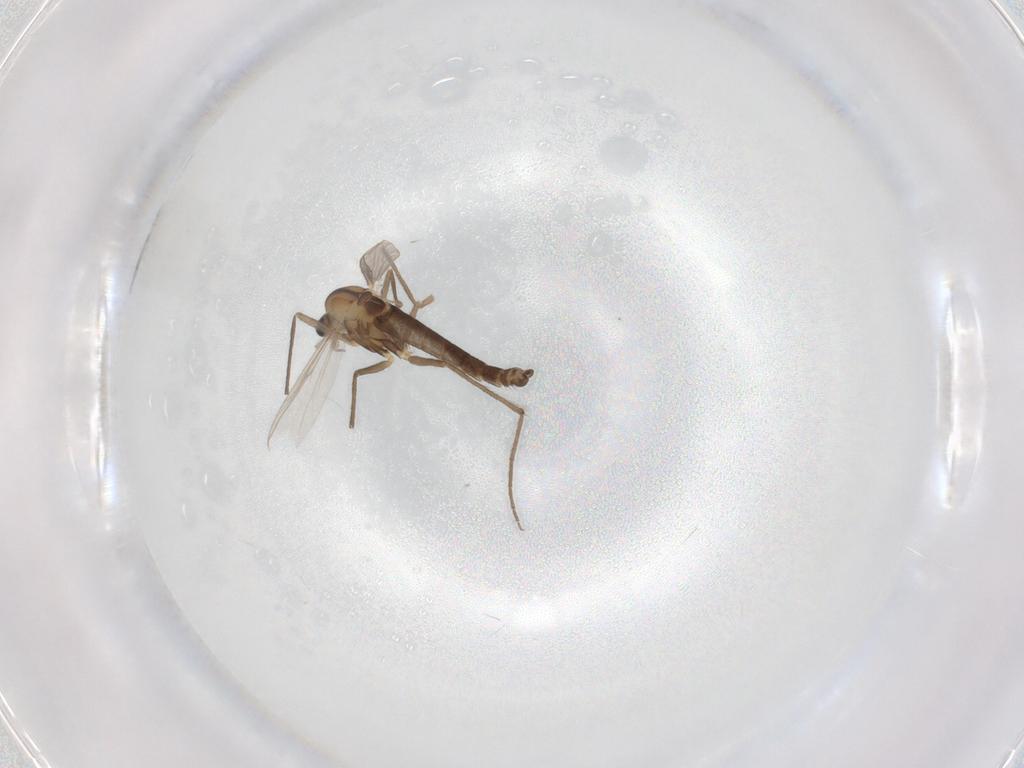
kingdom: Animalia
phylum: Arthropoda
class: Insecta
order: Diptera
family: Chironomidae
